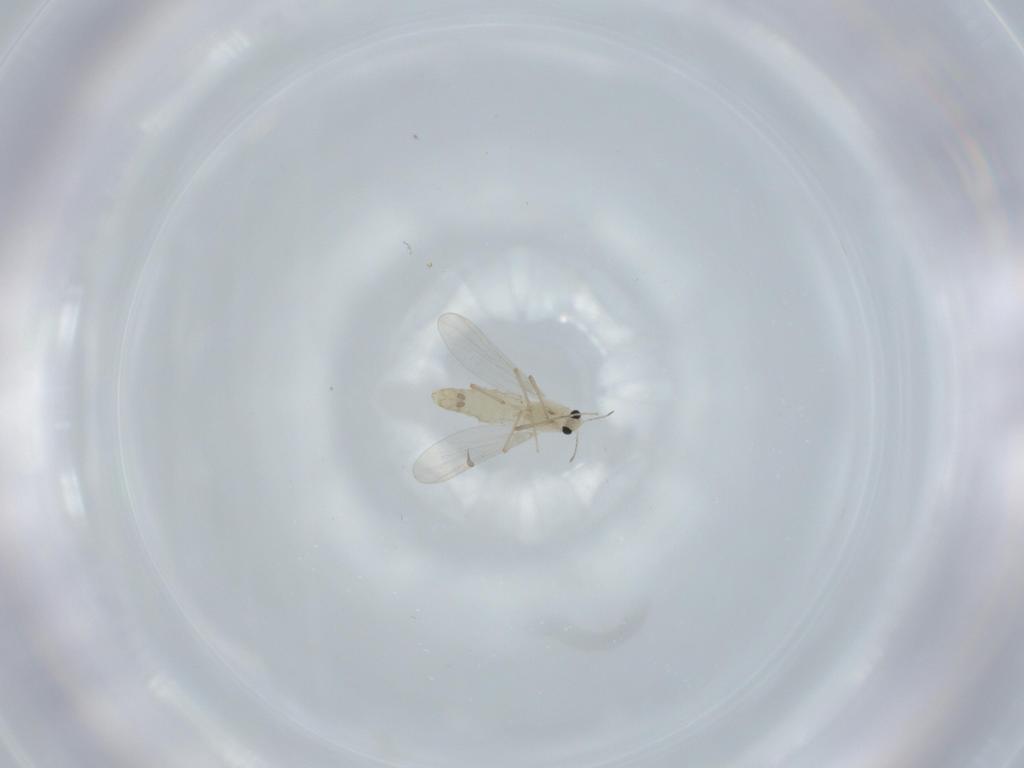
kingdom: Animalia
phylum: Arthropoda
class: Insecta
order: Diptera
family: Chironomidae
